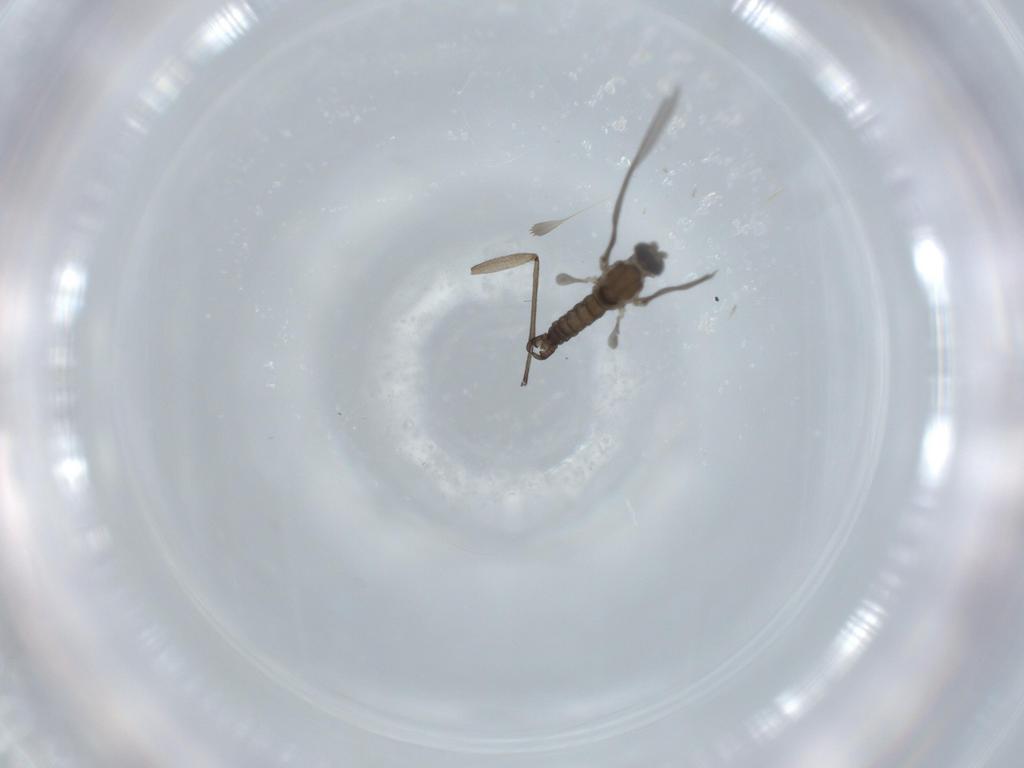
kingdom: Animalia
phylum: Arthropoda
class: Insecta
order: Diptera
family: Cecidomyiidae
